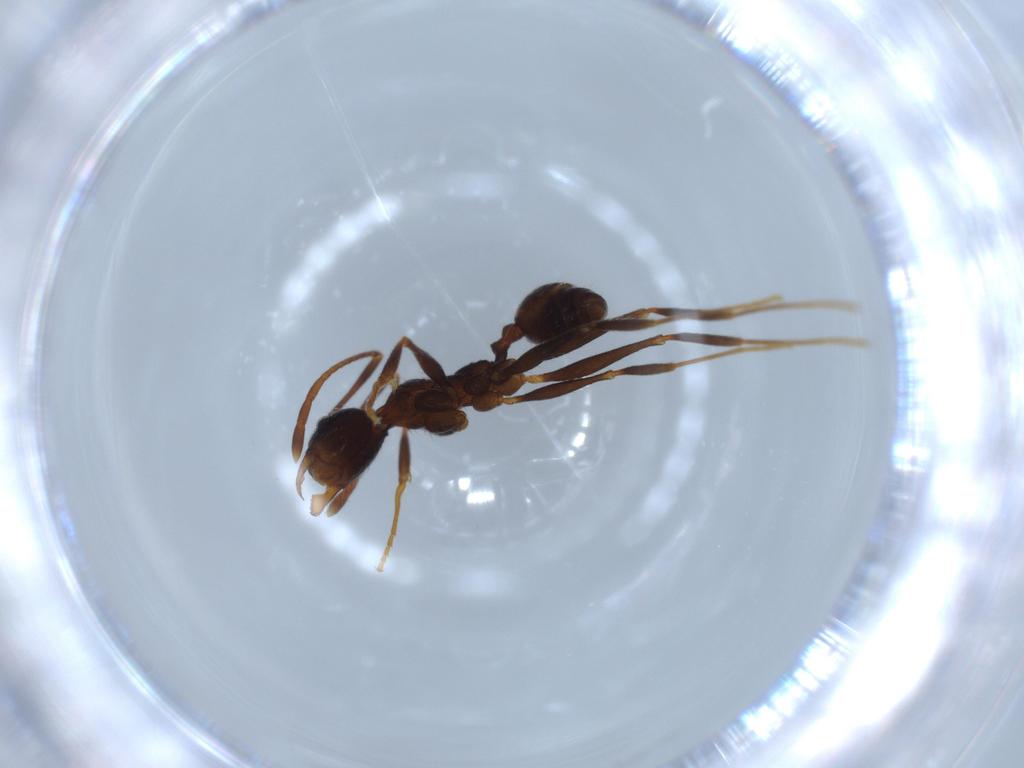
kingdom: Animalia
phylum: Arthropoda
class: Insecta
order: Hymenoptera
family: Formicidae
